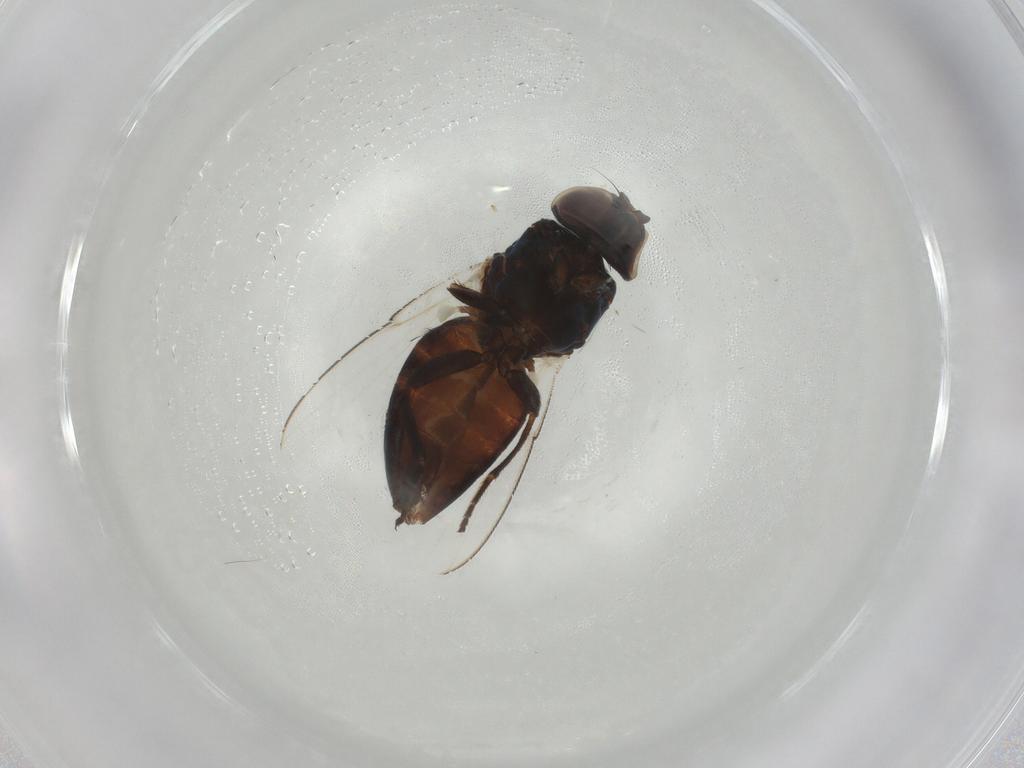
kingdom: Animalia
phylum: Arthropoda
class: Insecta
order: Diptera
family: Milichiidae
